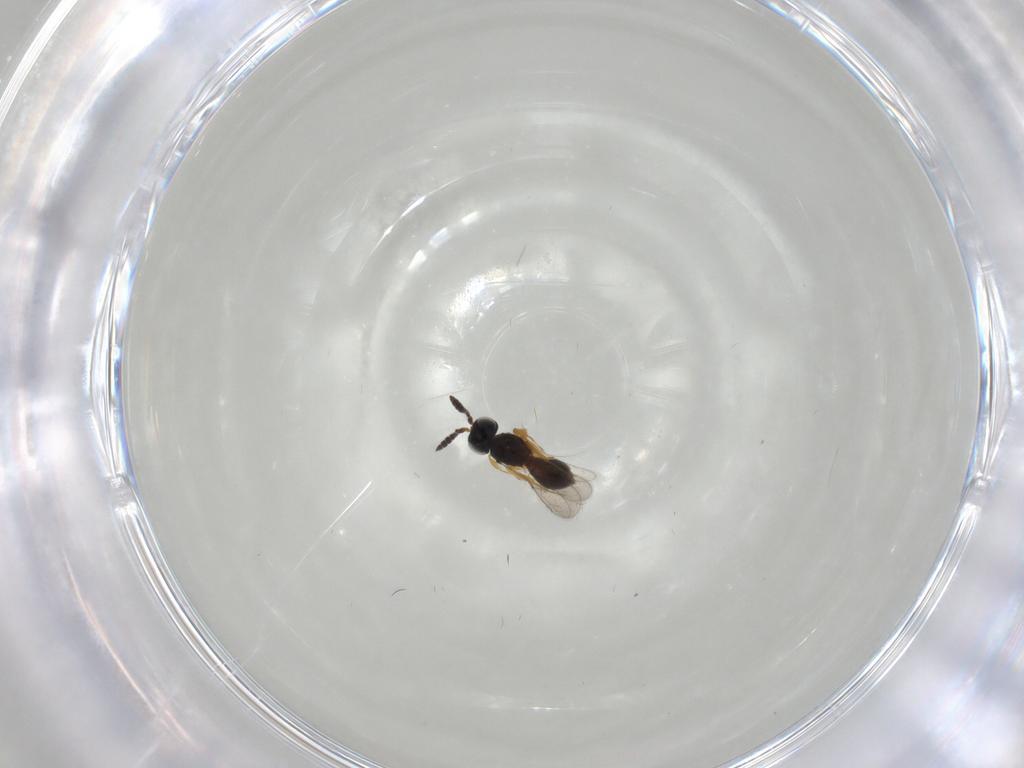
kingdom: Animalia
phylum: Arthropoda
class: Insecta
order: Hymenoptera
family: Scelionidae
